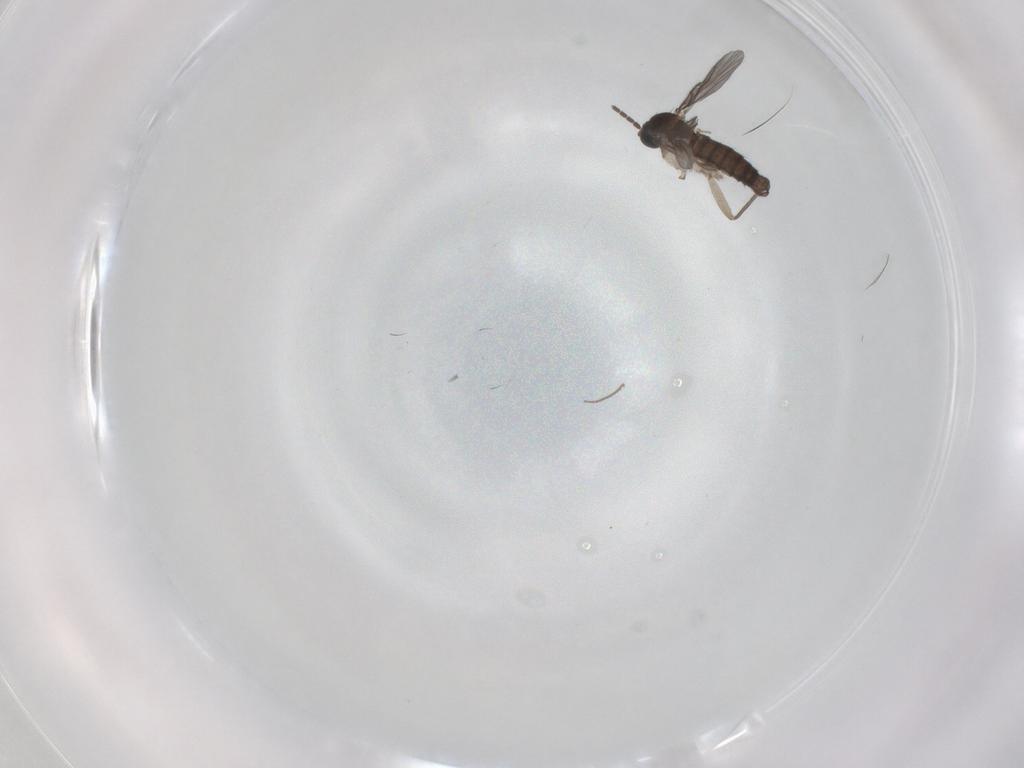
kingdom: Animalia
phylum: Arthropoda
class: Insecta
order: Diptera
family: Sciaridae
